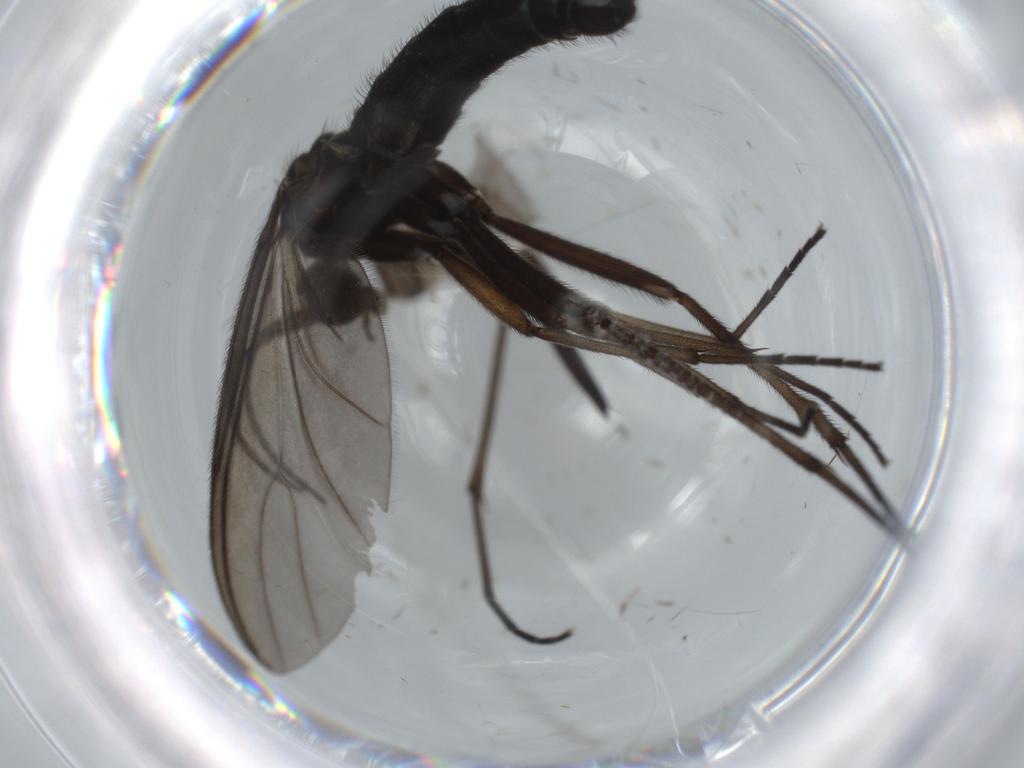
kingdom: Animalia
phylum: Arthropoda
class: Insecta
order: Diptera
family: Sciaridae
